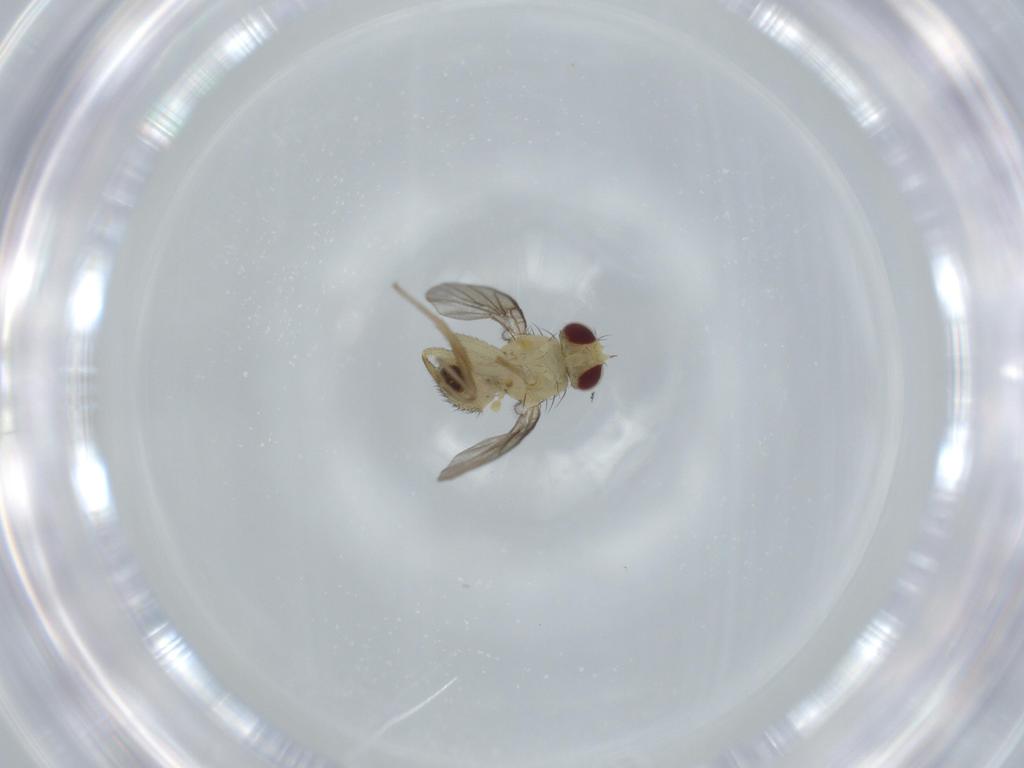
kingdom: Animalia
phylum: Arthropoda
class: Insecta
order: Diptera
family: Agromyzidae
